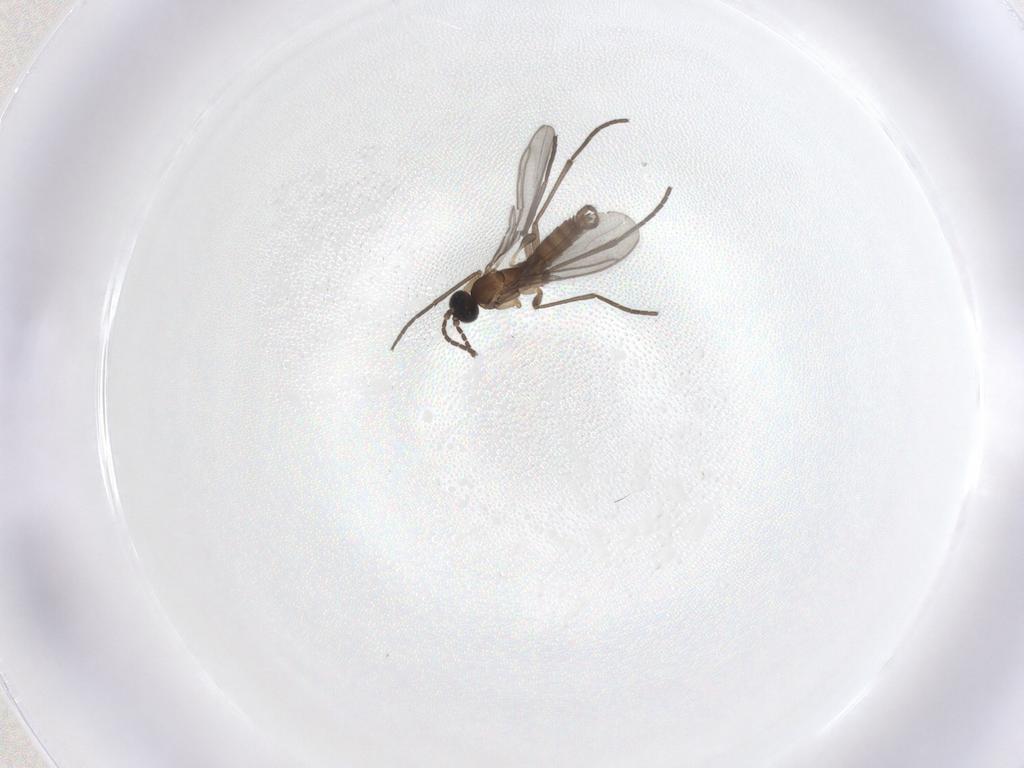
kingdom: Animalia
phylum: Arthropoda
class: Insecta
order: Diptera
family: Sciaridae
